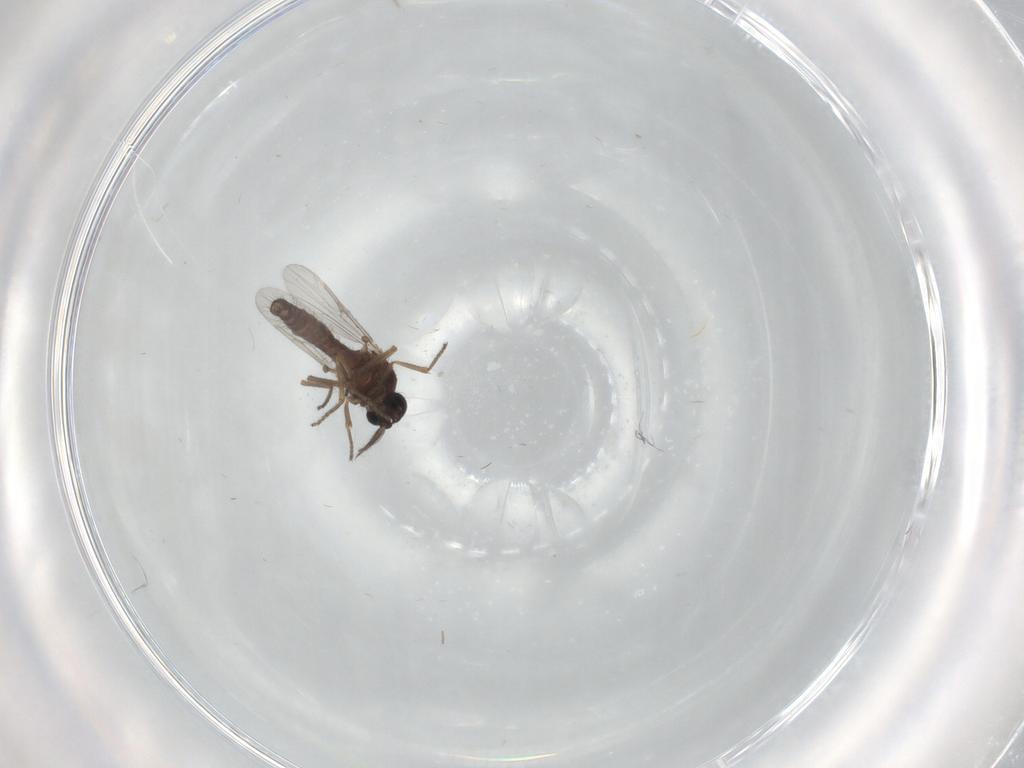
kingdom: Animalia
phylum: Arthropoda
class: Insecta
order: Diptera
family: Ceratopogonidae
